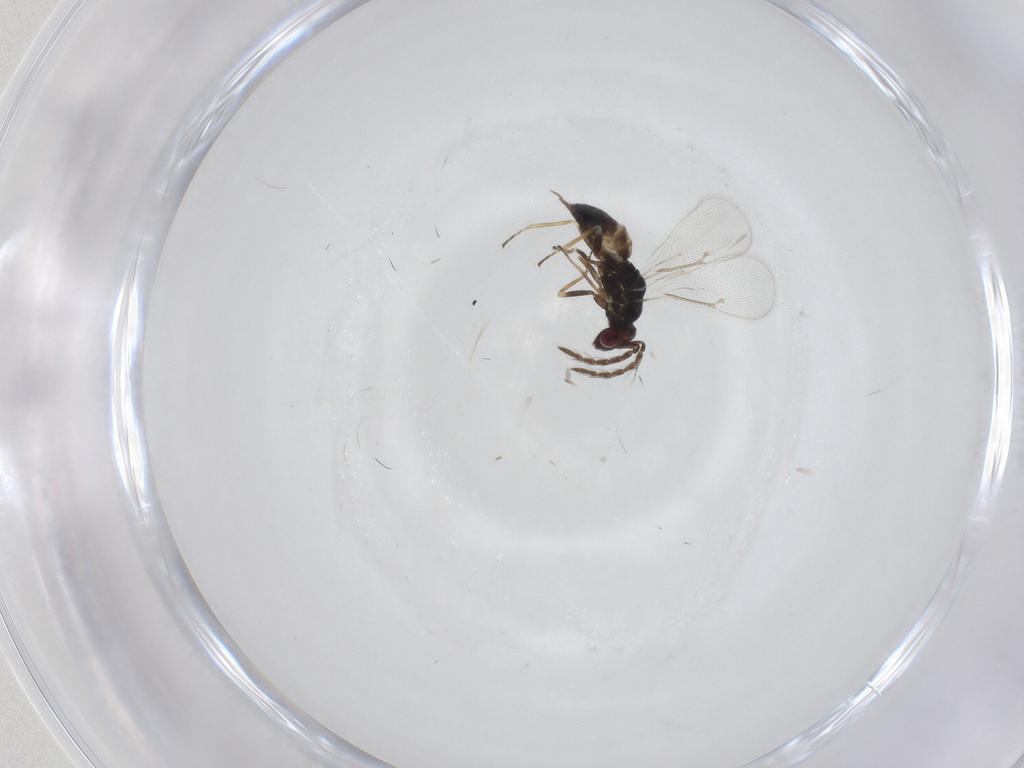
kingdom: Animalia
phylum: Arthropoda
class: Insecta
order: Hymenoptera
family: Eulophidae
